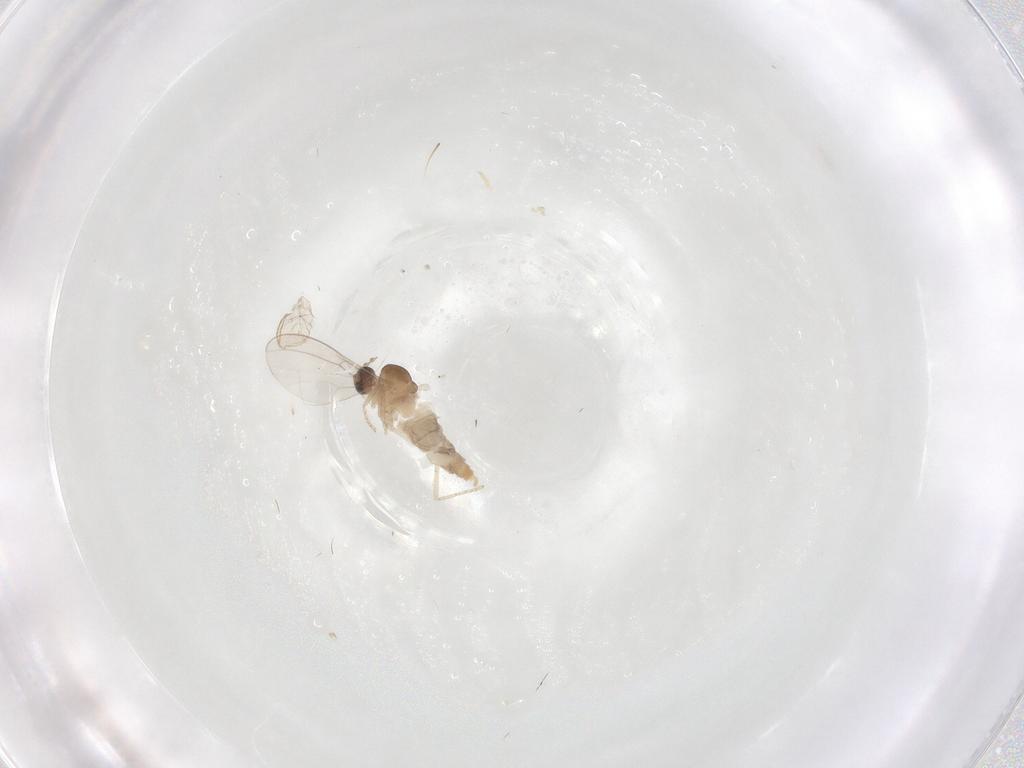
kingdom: Animalia
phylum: Arthropoda
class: Insecta
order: Diptera
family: Cecidomyiidae
